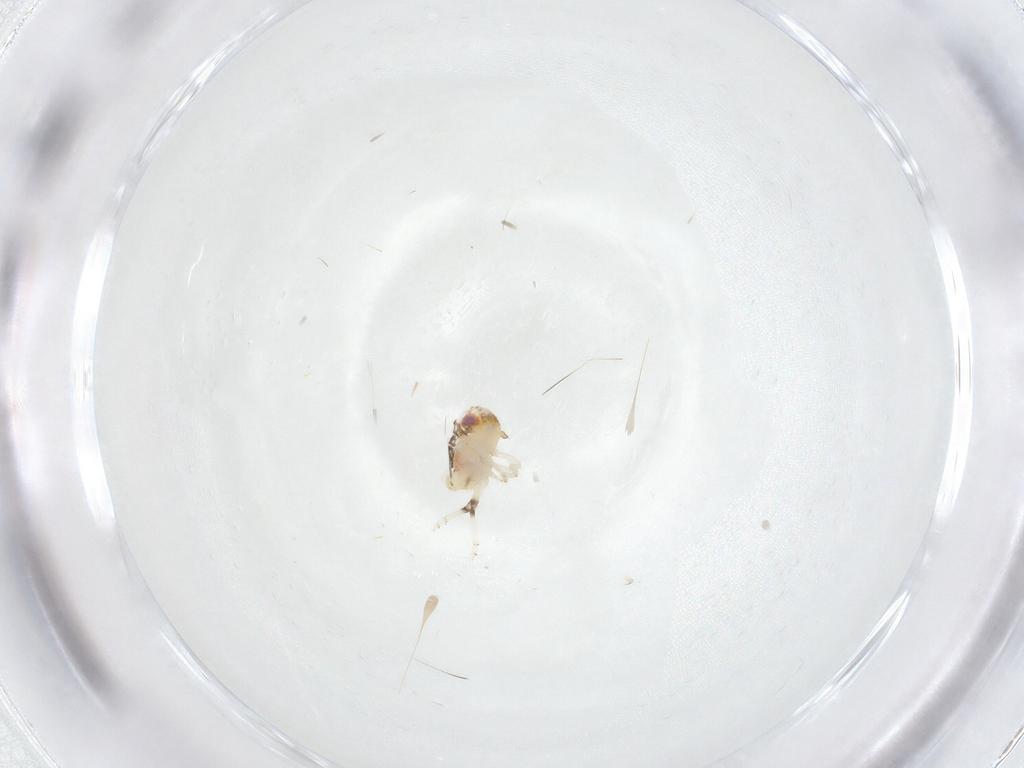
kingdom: Animalia
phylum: Arthropoda
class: Insecta
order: Hemiptera
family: Nogodinidae
